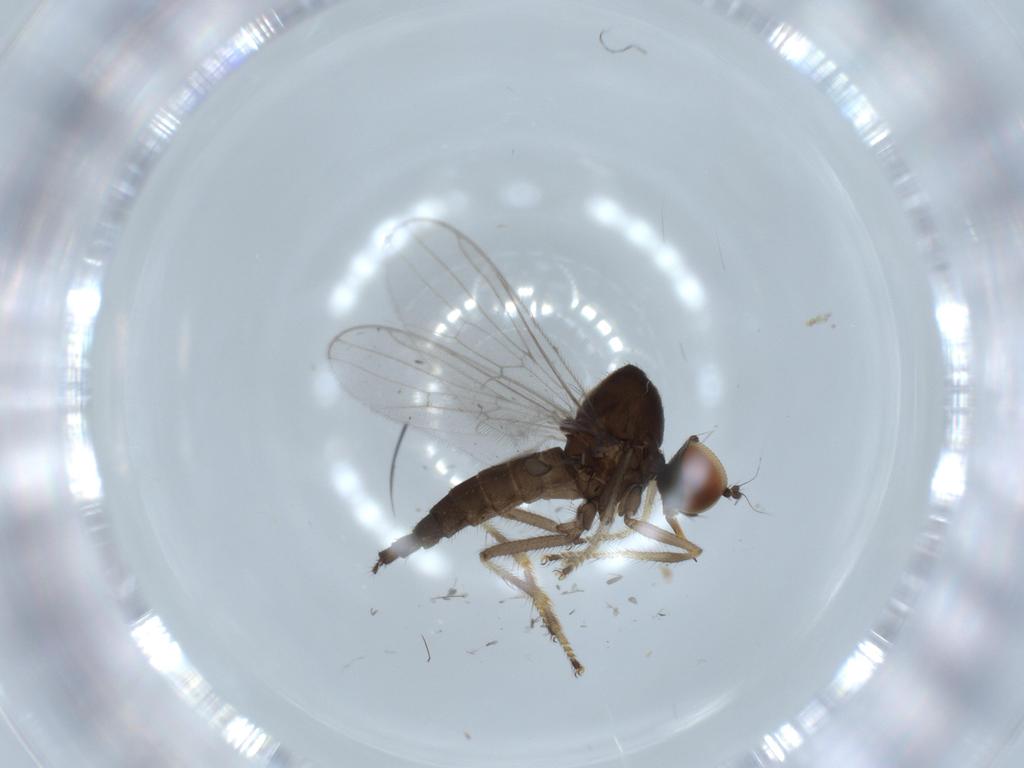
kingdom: Animalia
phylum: Arthropoda
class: Insecta
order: Diptera
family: Hybotidae
